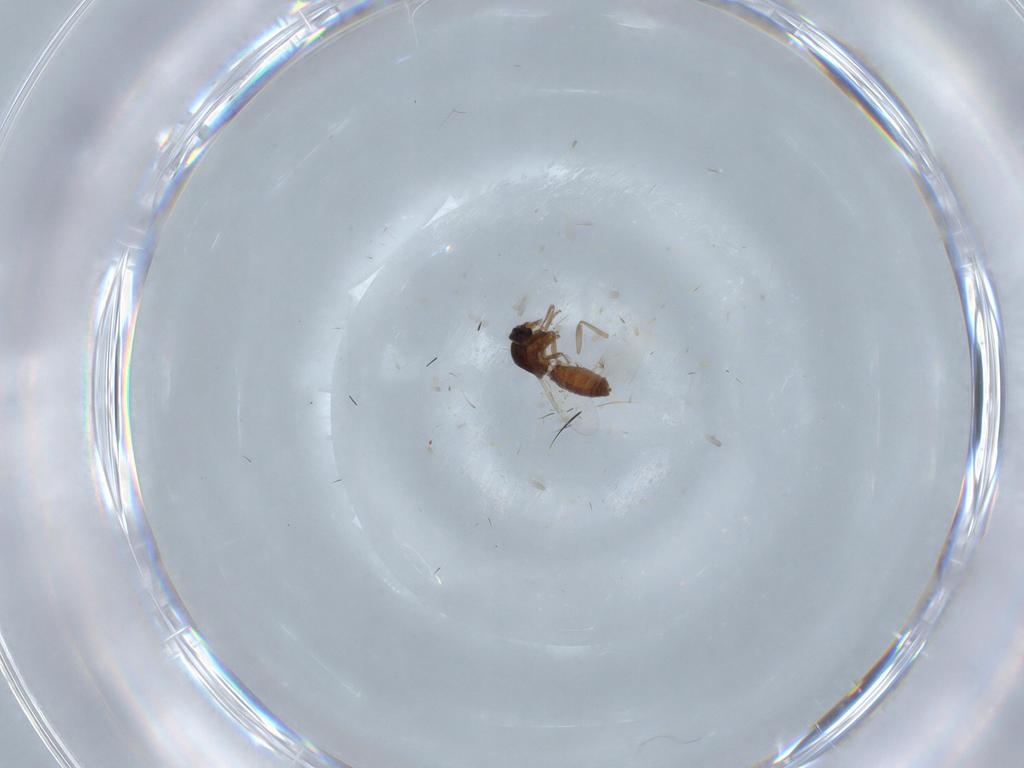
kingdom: Animalia
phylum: Arthropoda
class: Insecta
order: Diptera
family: Ceratopogonidae
